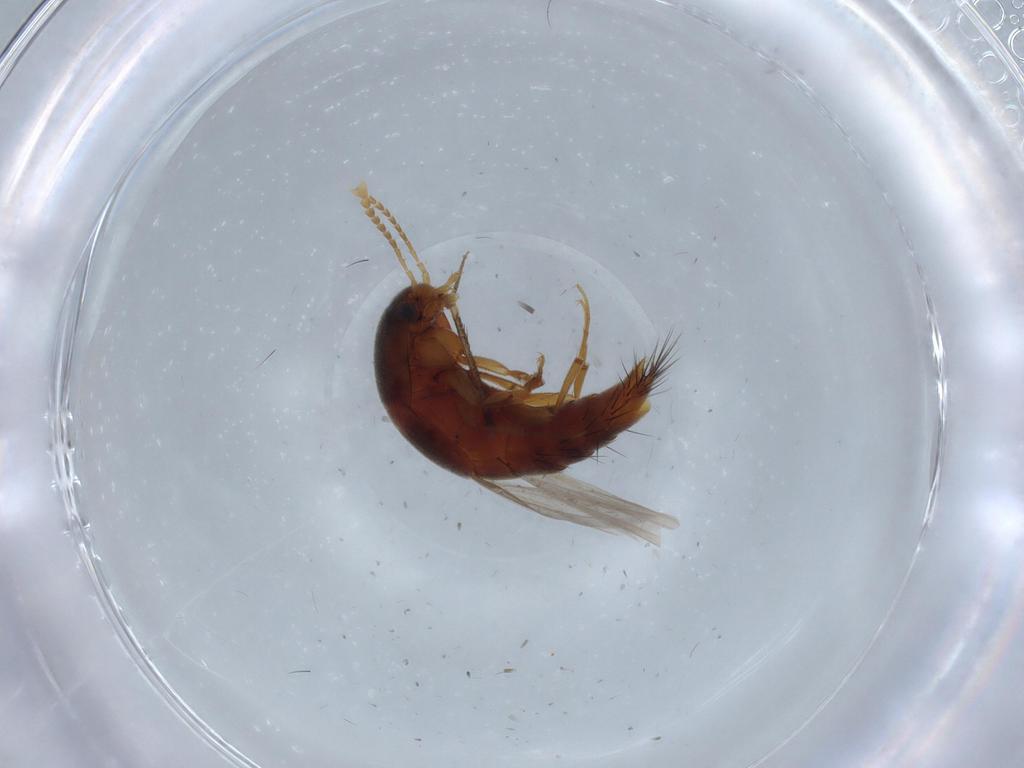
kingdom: Animalia
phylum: Arthropoda
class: Insecta
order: Coleoptera
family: Staphylinidae
